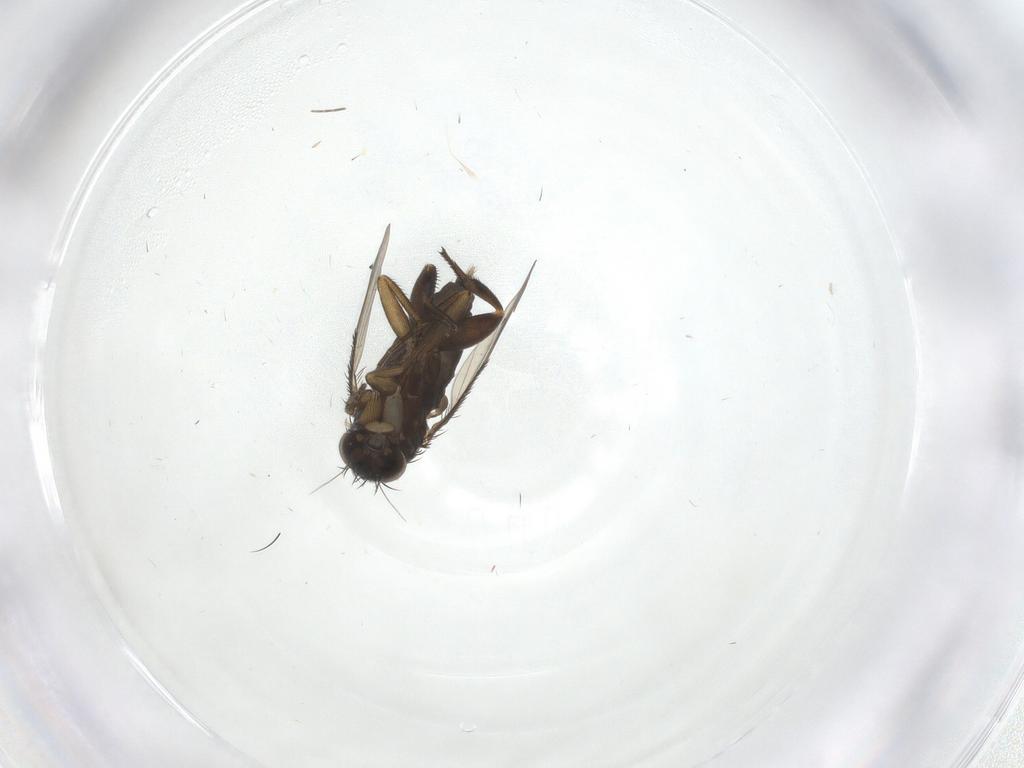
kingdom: Animalia
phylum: Arthropoda
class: Insecta
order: Diptera
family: Phoridae
